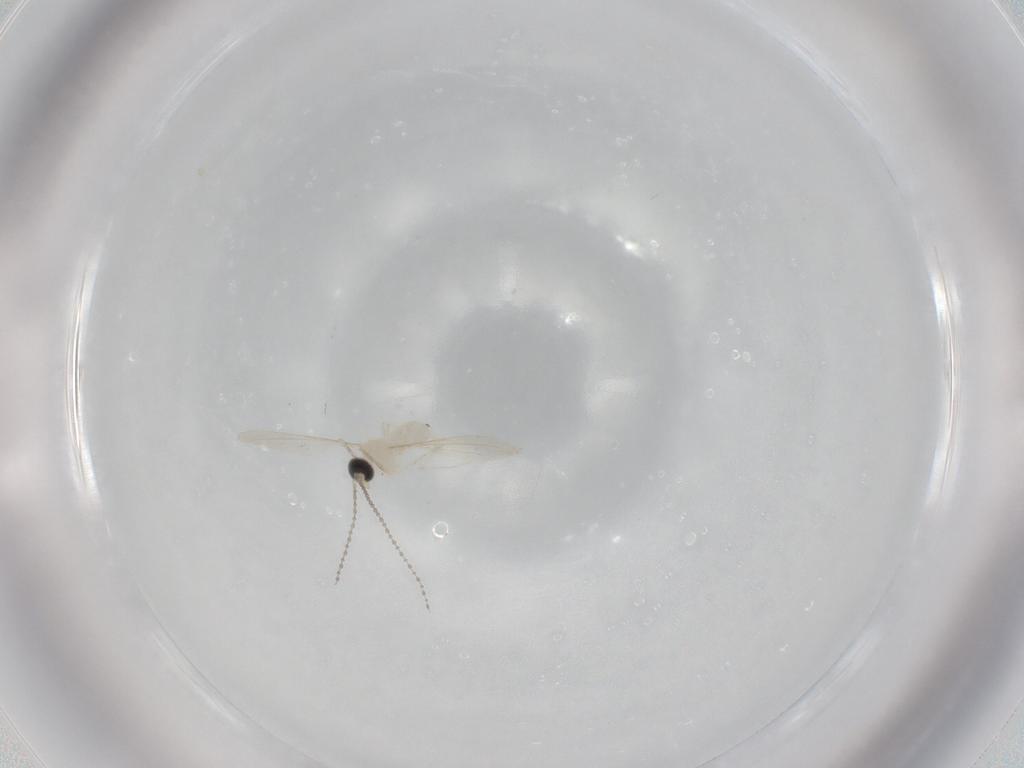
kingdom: Animalia
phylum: Arthropoda
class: Insecta
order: Diptera
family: Cecidomyiidae
